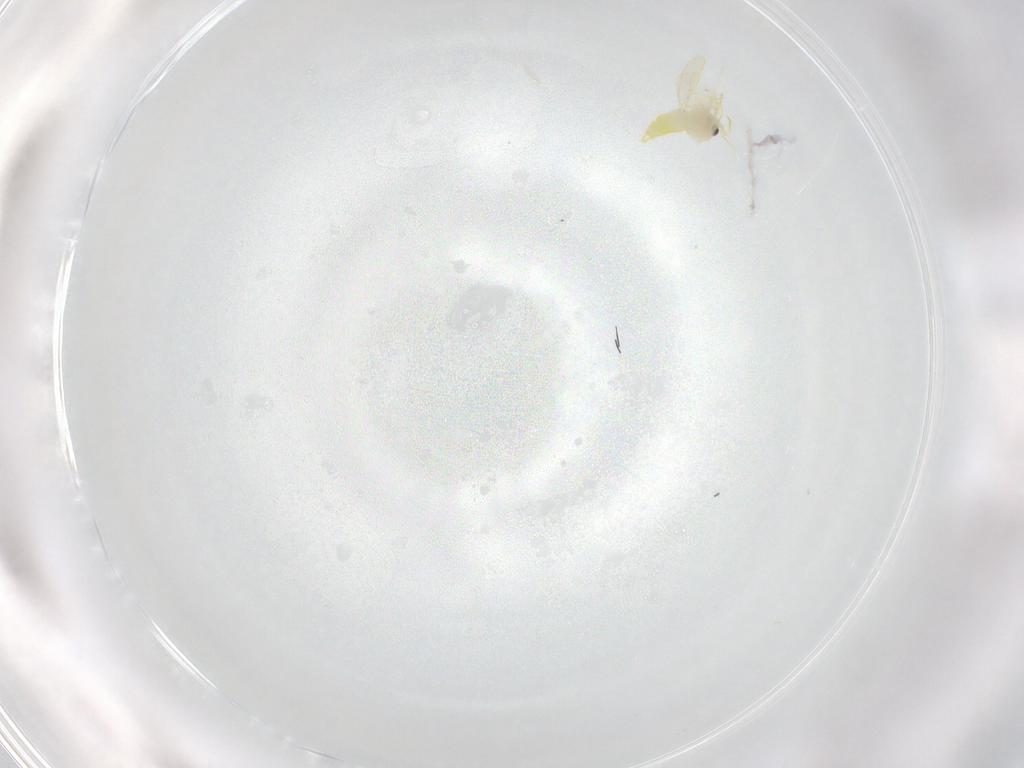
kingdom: Animalia
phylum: Arthropoda
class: Insecta
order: Hemiptera
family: Aleyrodidae
